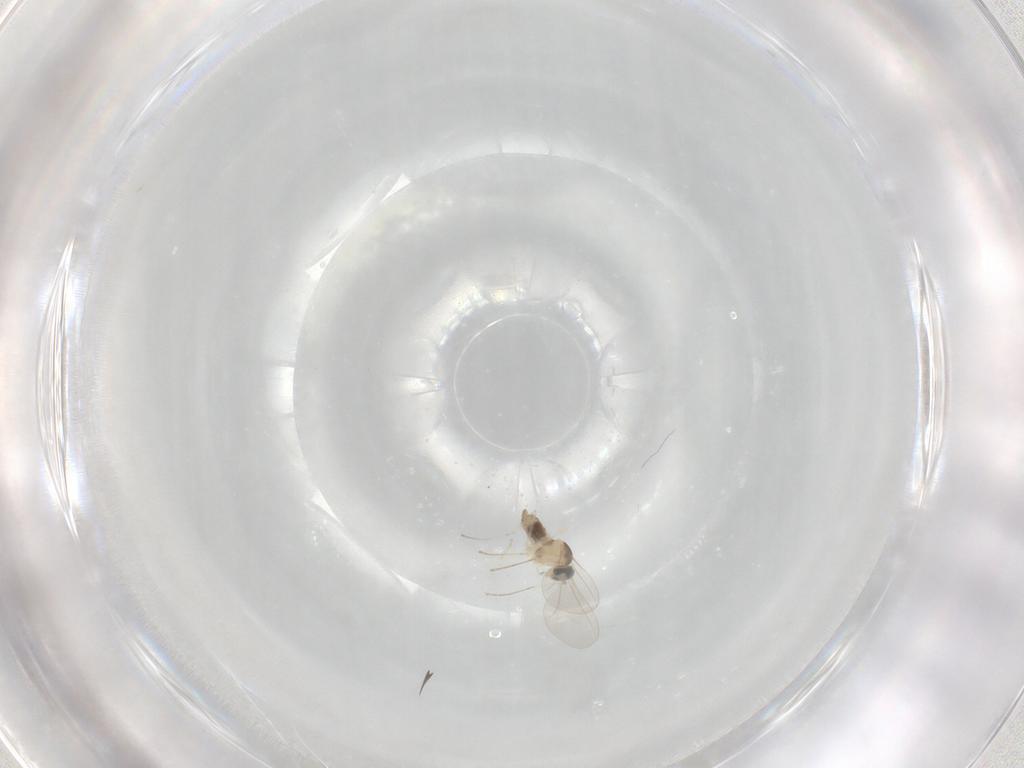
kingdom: Animalia
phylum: Arthropoda
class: Insecta
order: Diptera
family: Cecidomyiidae
